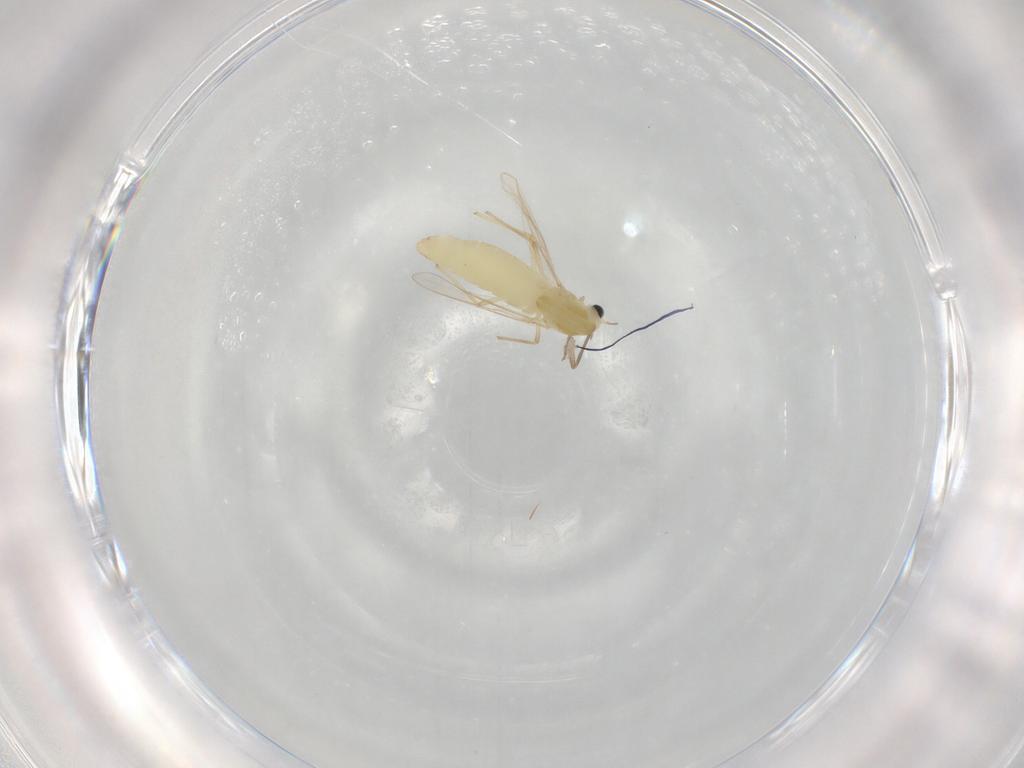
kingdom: Animalia
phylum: Arthropoda
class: Insecta
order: Diptera
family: Chironomidae
